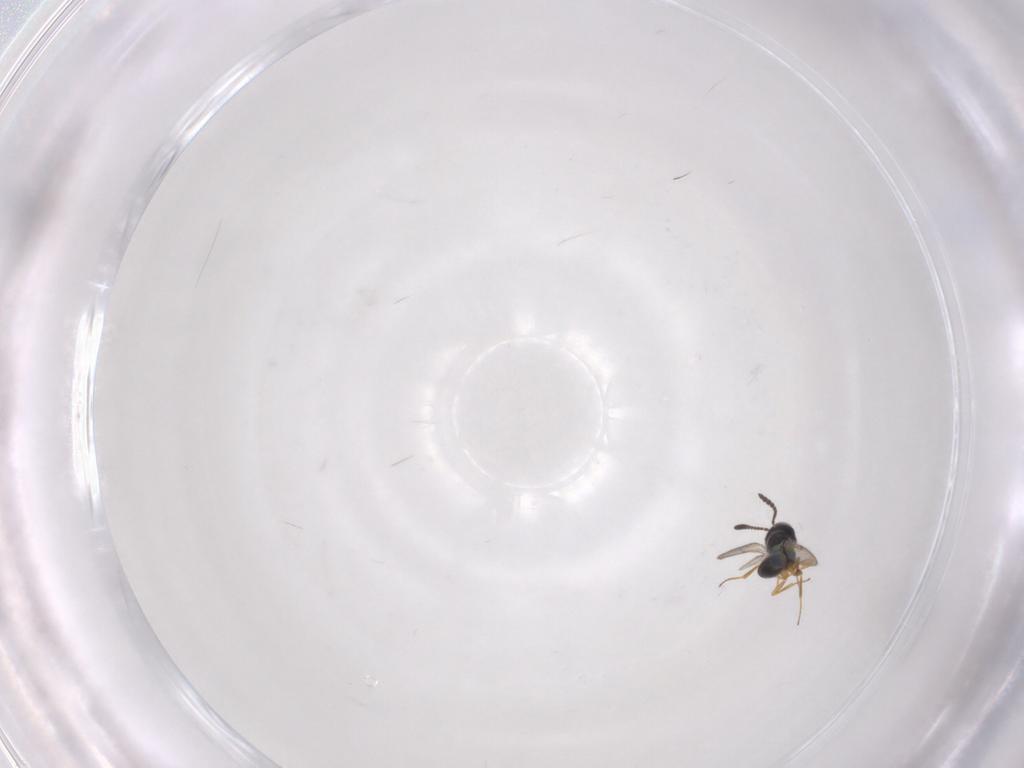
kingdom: Animalia
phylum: Arthropoda
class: Insecta
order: Hymenoptera
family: Scelionidae
